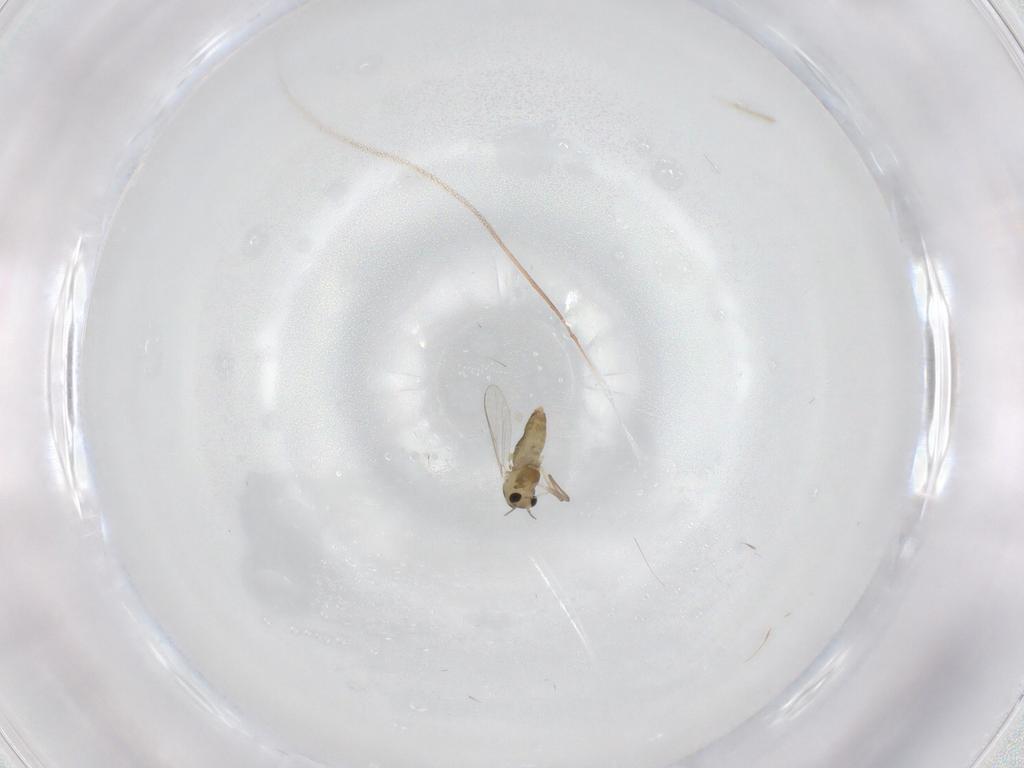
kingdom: Animalia
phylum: Arthropoda
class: Insecta
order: Diptera
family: Chironomidae
